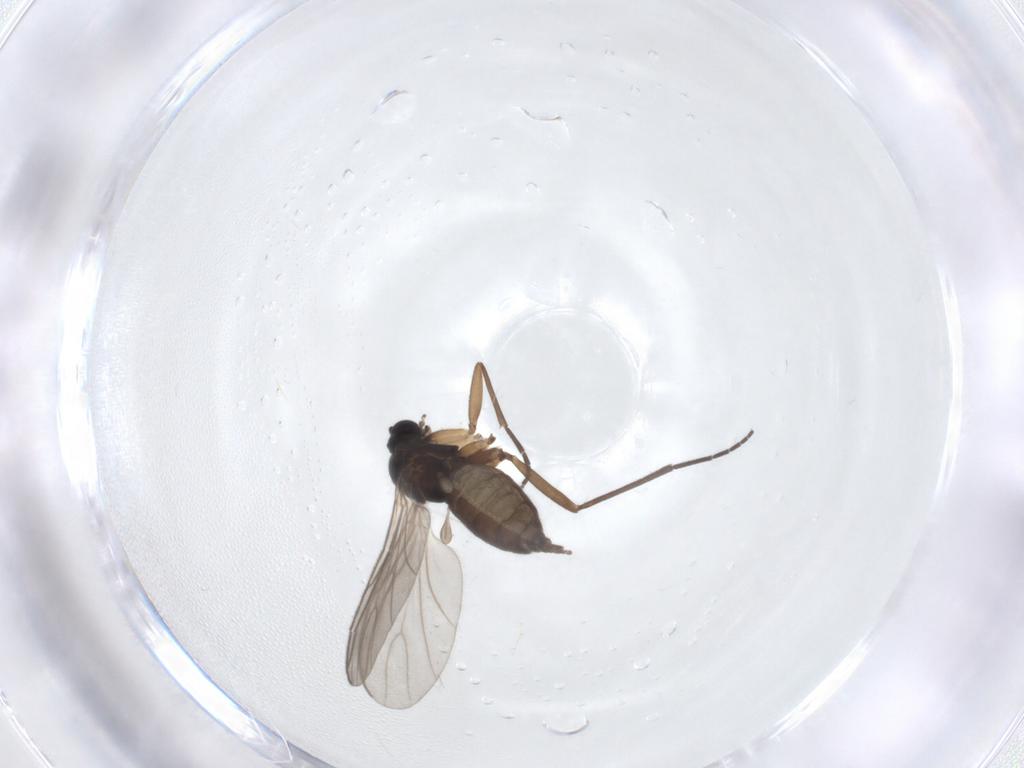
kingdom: Animalia
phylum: Arthropoda
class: Insecta
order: Diptera
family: Sciaridae
